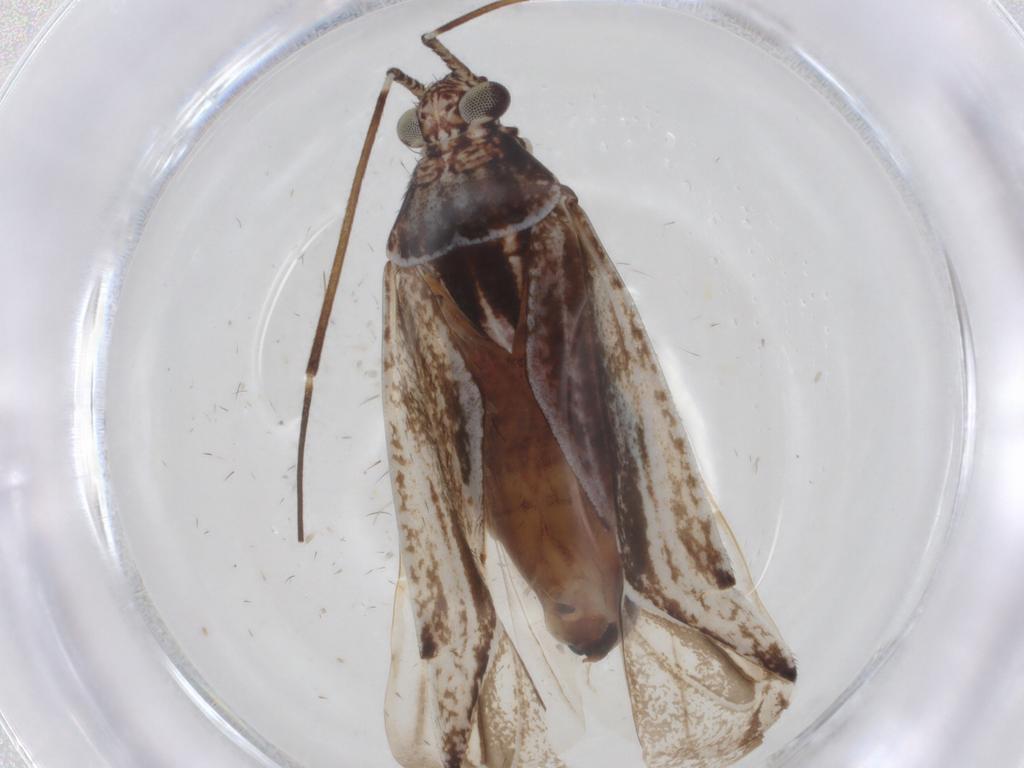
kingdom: Animalia
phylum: Arthropoda
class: Insecta
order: Hemiptera
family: Miridae
